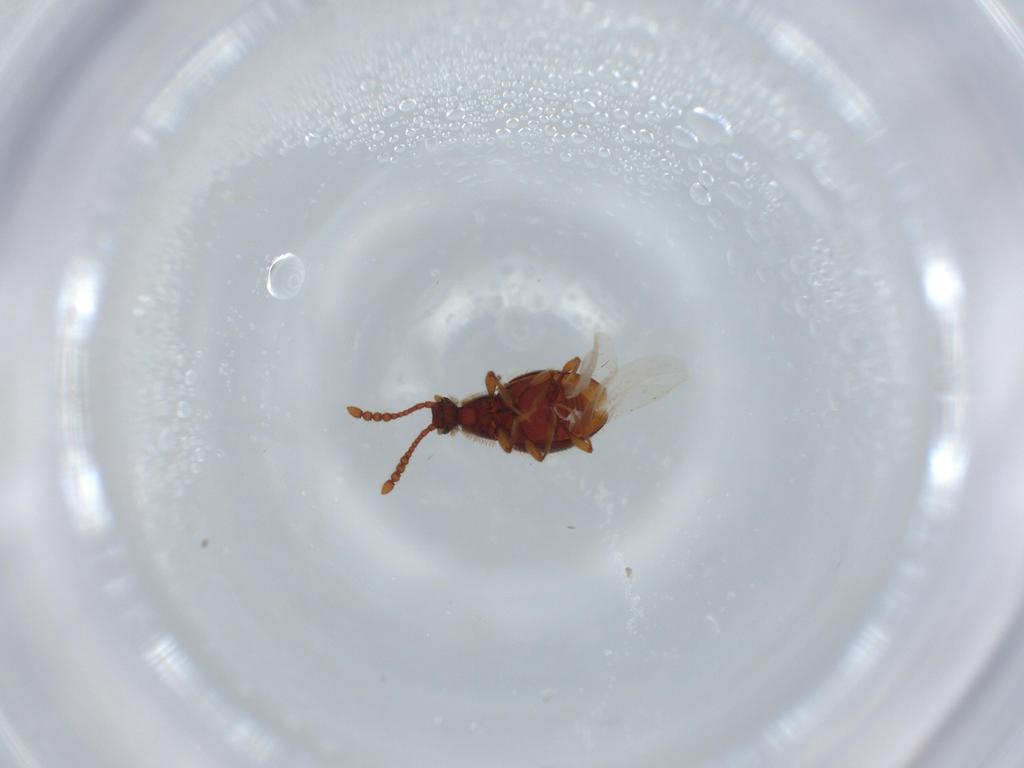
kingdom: Animalia
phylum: Arthropoda
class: Insecta
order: Coleoptera
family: Staphylinidae
